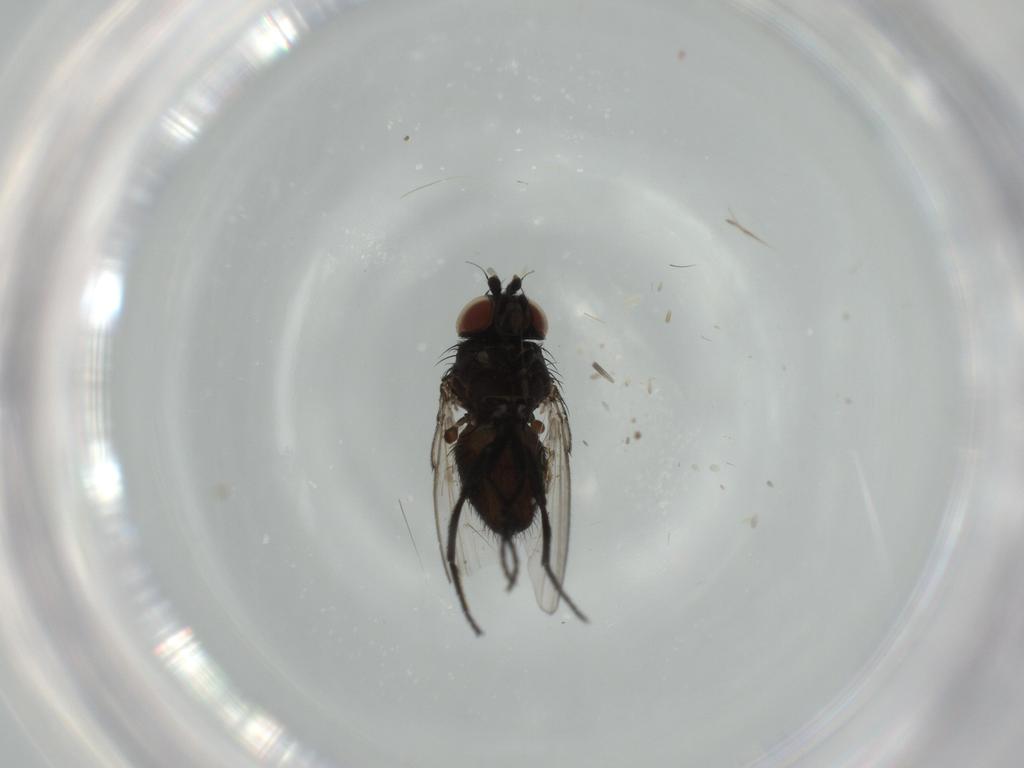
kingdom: Animalia
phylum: Arthropoda
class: Insecta
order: Diptera
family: Milichiidae
